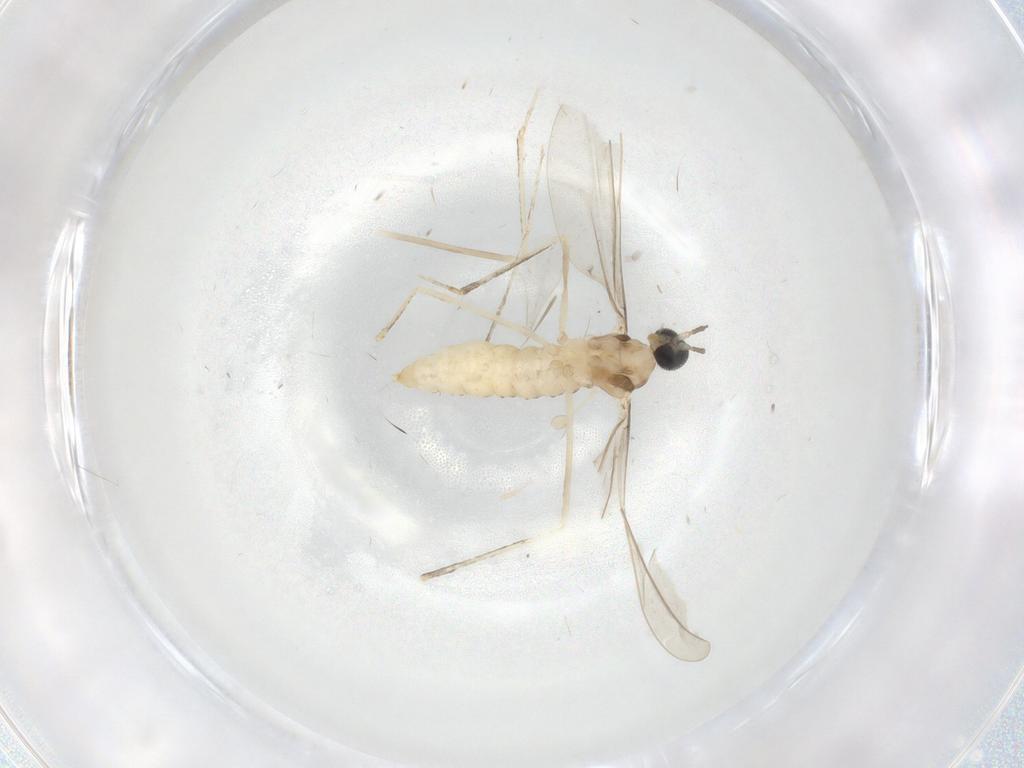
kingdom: Animalia
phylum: Arthropoda
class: Insecta
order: Diptera
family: Cecidomyiidae
